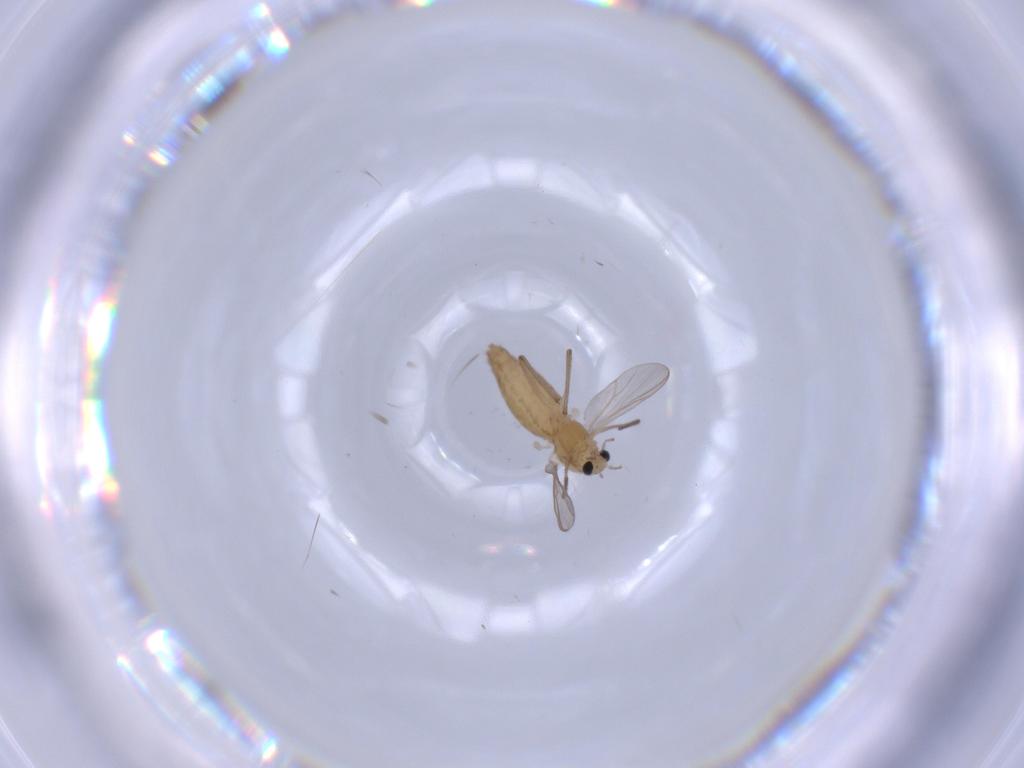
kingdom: Animalia
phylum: Arthropoda
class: Insecta
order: Diptera
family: Chironomidae
